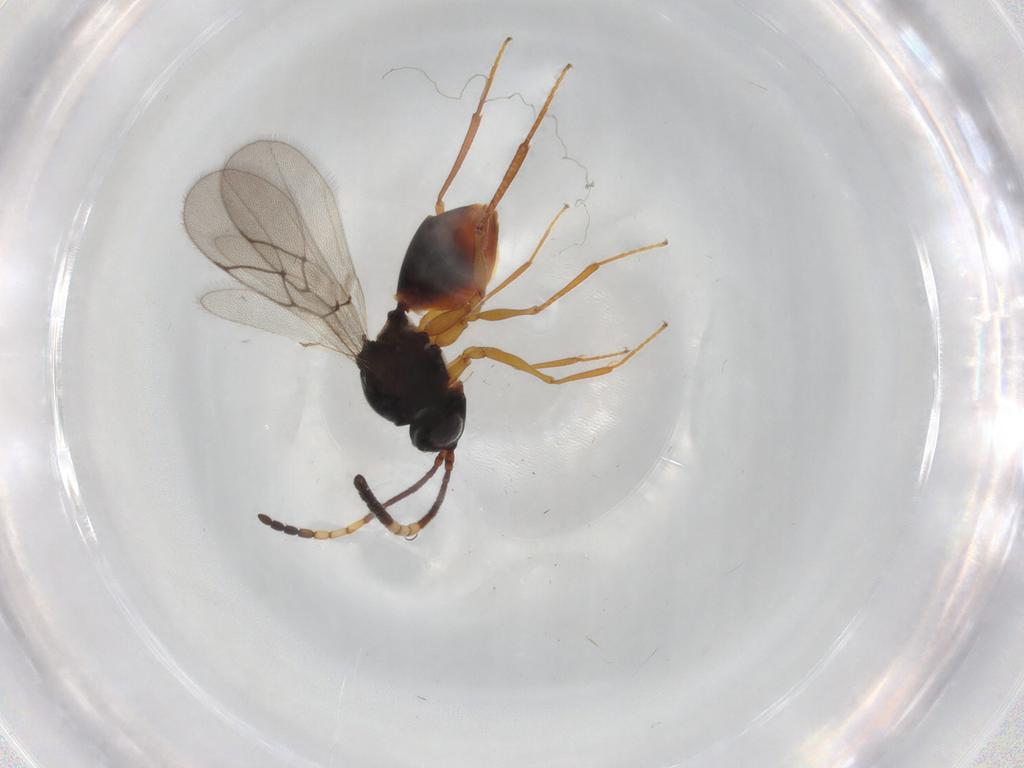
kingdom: Animalia
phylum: Arthropoda
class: Insecta
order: Hymenoptera
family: Figitidae
